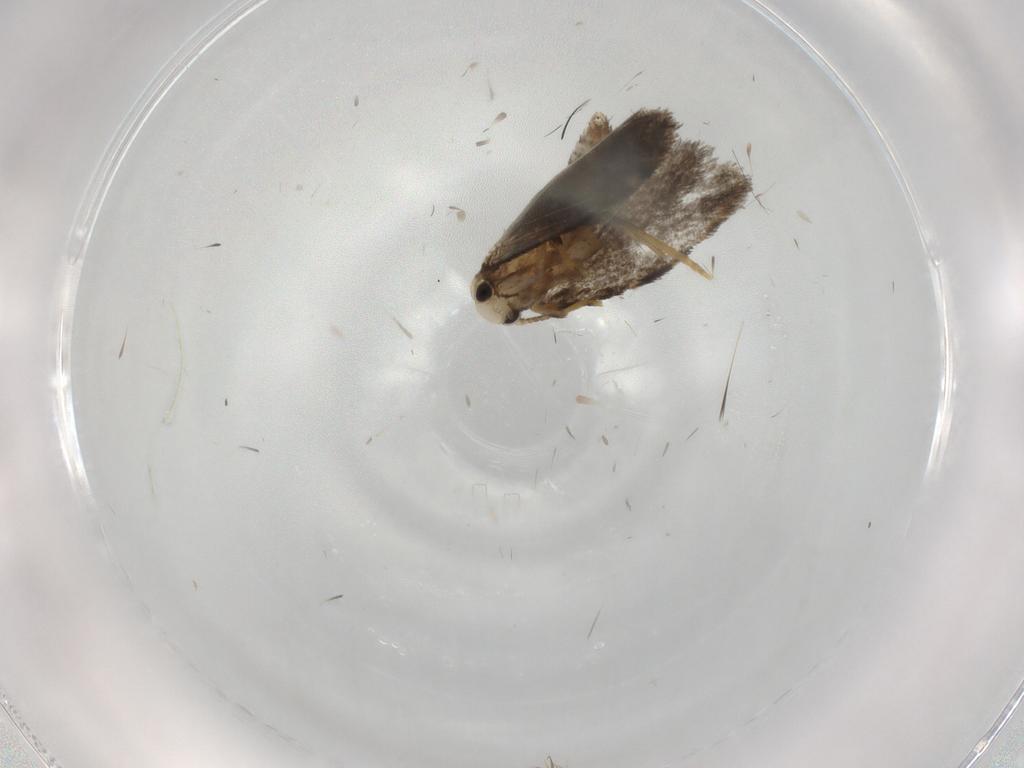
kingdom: Animalia
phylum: Arthropoda
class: Insecta
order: Lepidoptera
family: Psychidae
